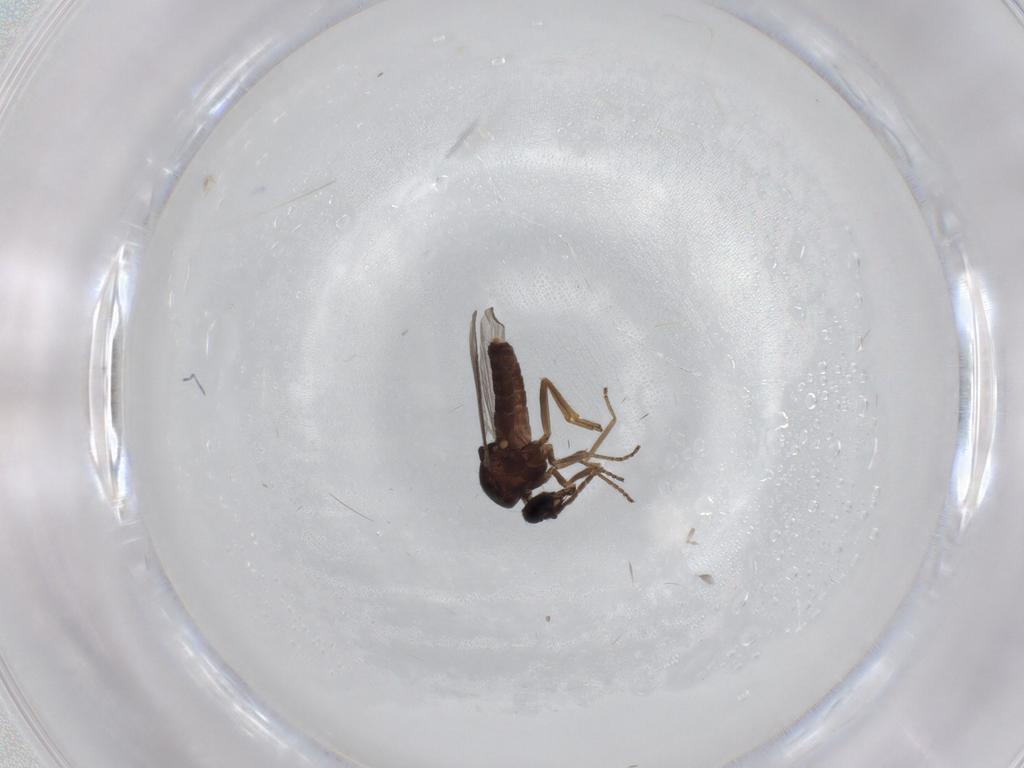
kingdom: Animalia
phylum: Arthropoda
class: Insecta
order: Diptera
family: Ceratopogonidae
